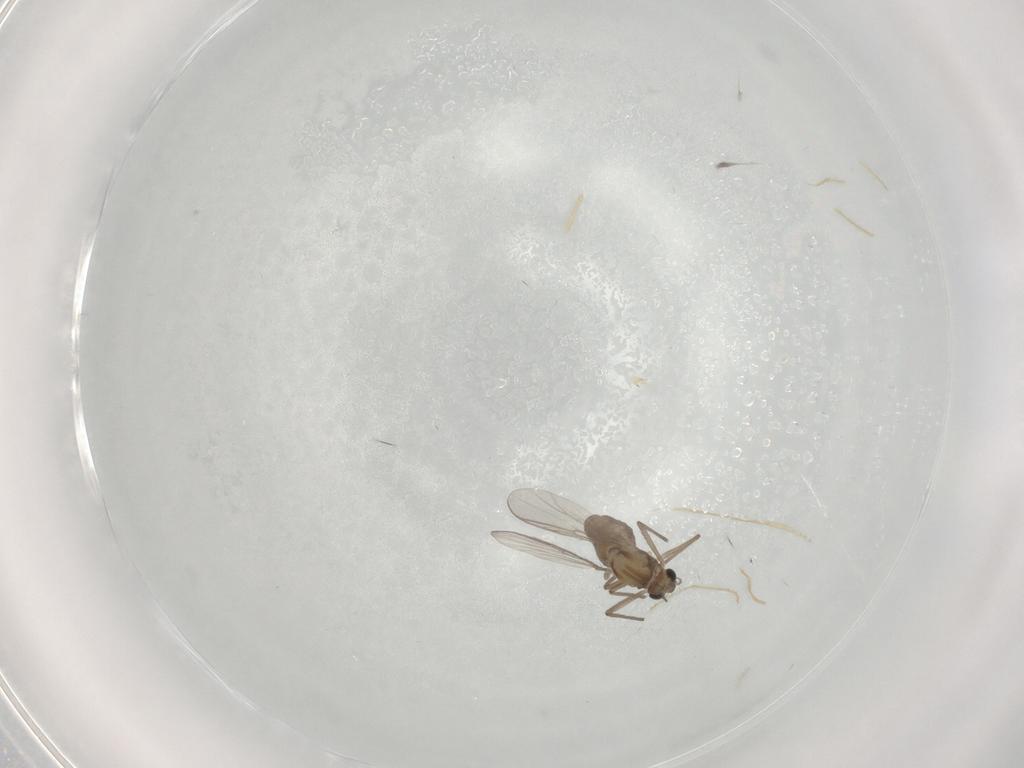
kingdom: Animalia
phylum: Arthropoda
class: Insecta
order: Diptera
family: Chironomidae
